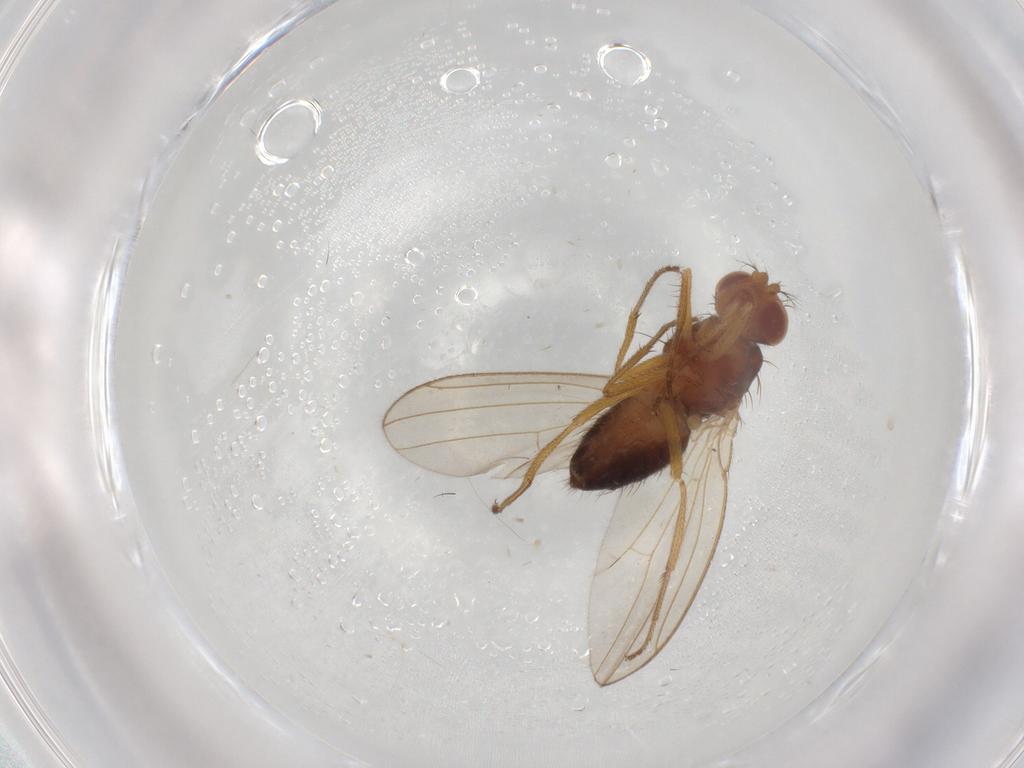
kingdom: Animalia
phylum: Arthropoda
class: Insecta
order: Diptera
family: Drosophilidae
